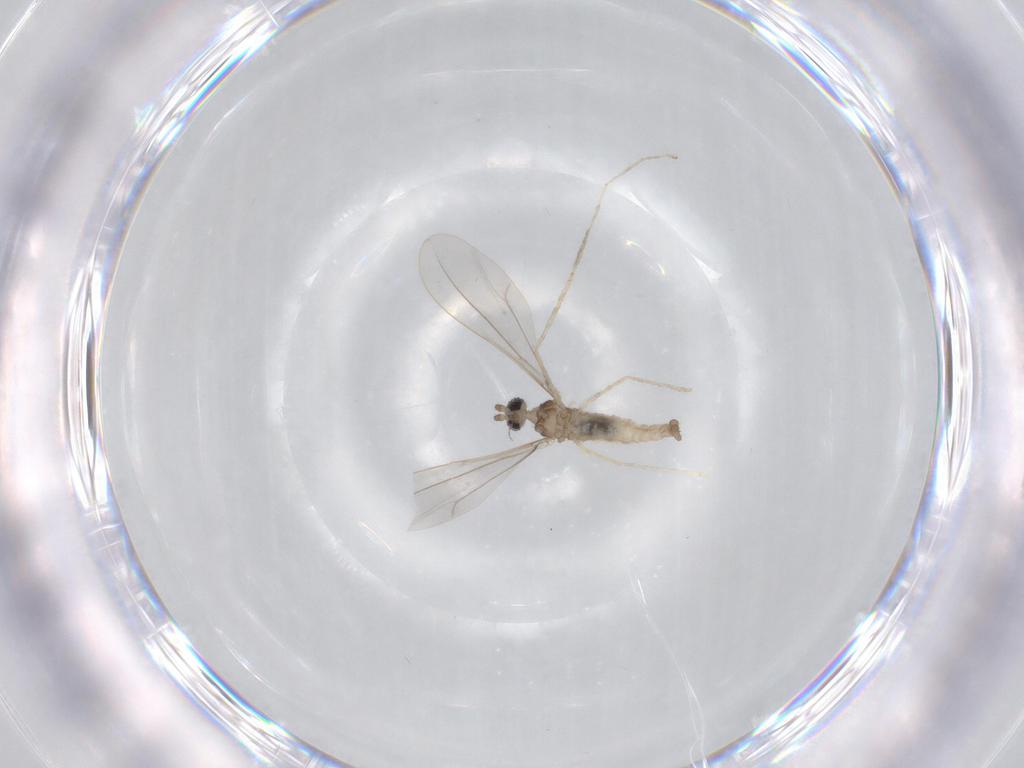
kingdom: Animalia
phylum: Arthropoda
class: Insecta
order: Diptera
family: Cecidomyiidae
